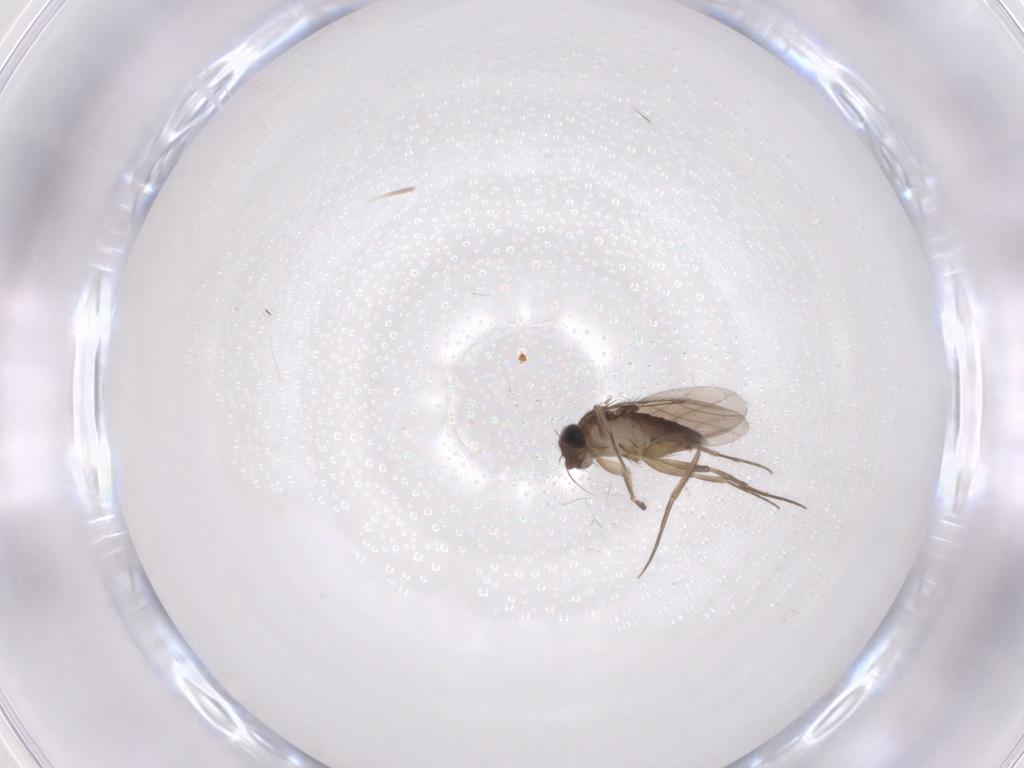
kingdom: Animalia
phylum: Arthropoda
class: Insecta
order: Diptera
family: Phoridae
